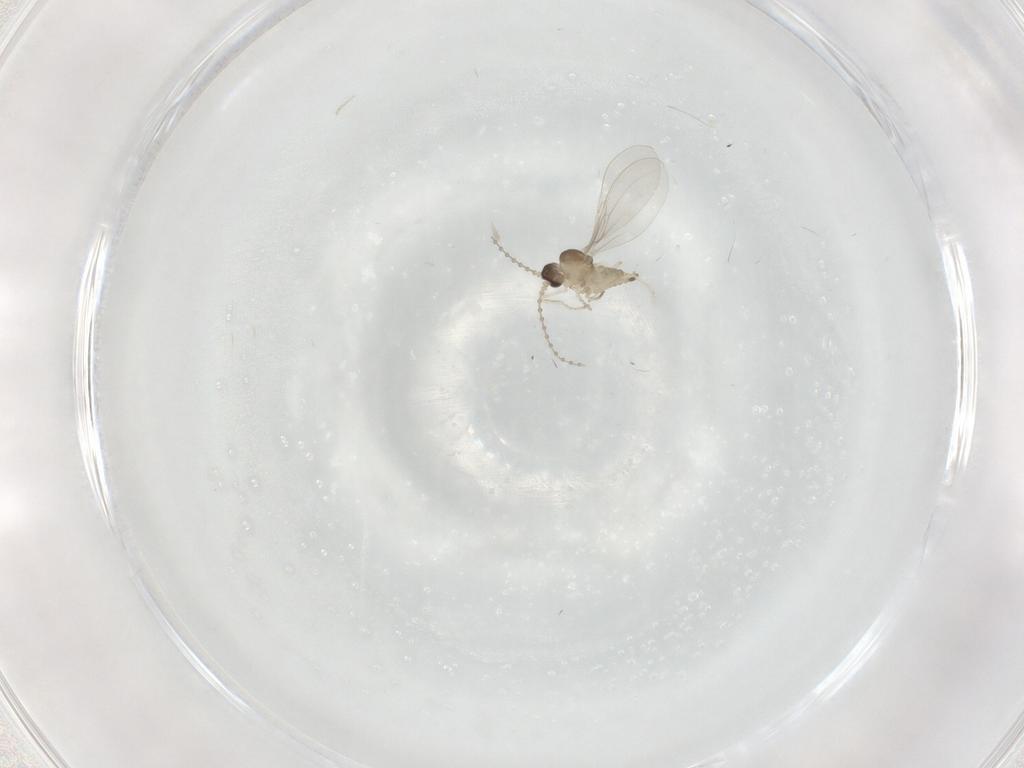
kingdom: Animalia
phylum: Arthropoda
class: Insecta
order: Diptera
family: Cecidomyiidae
